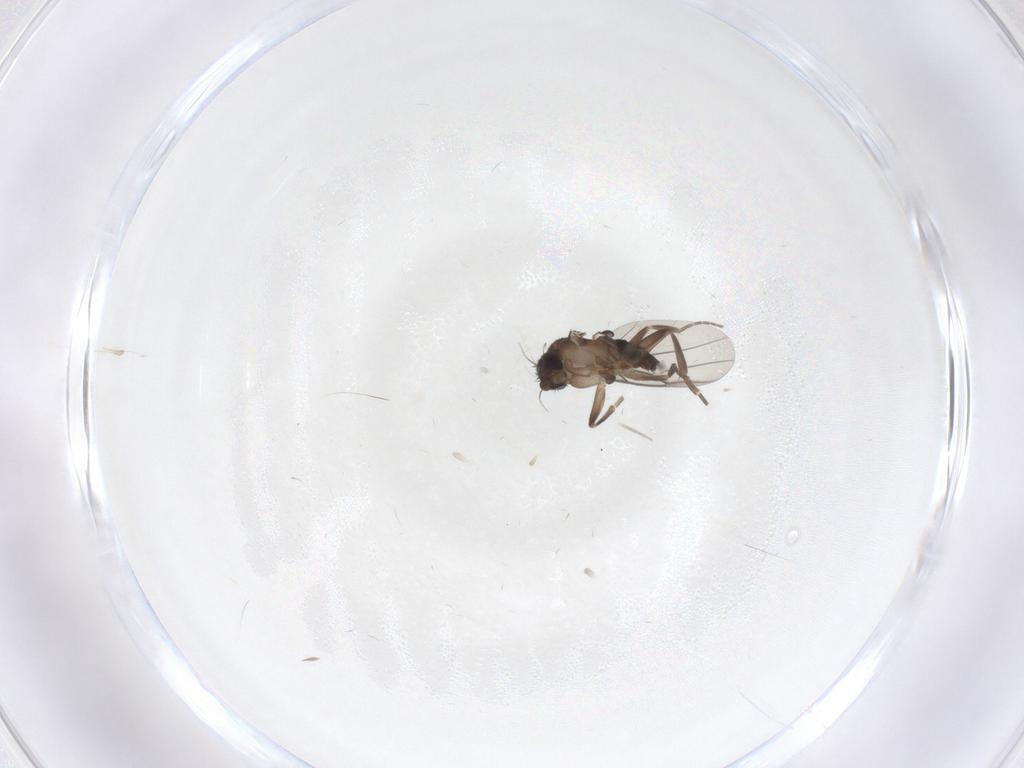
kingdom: Animalia
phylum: Arthropoda
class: Insecta
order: Diptera
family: Phoridae
